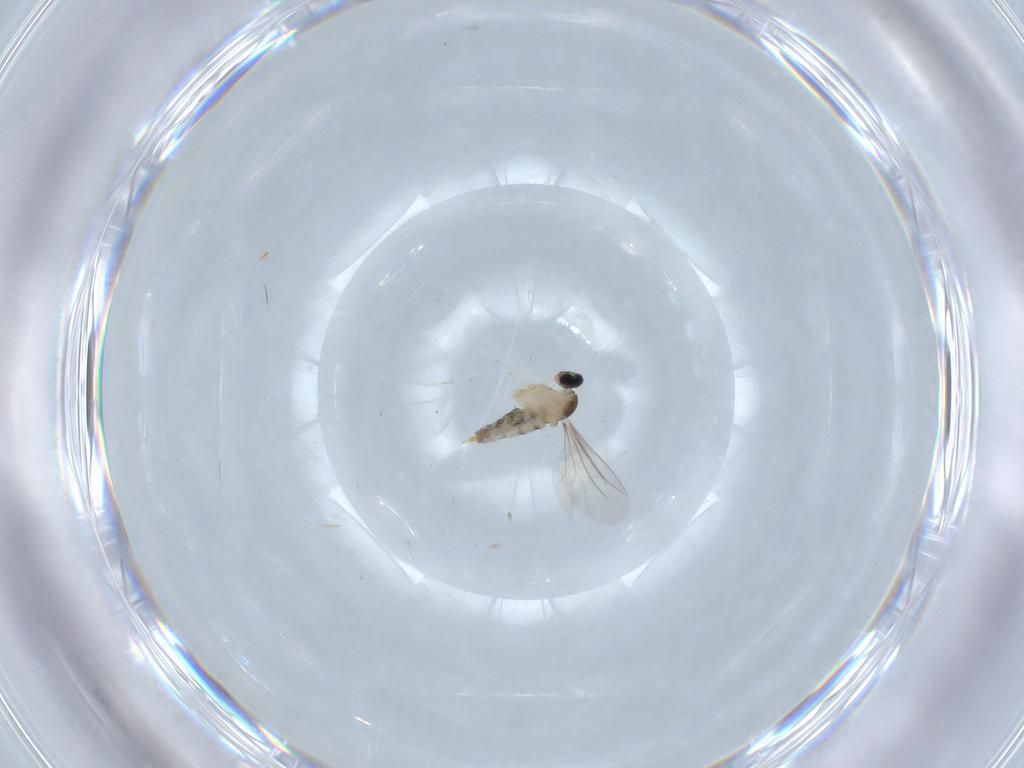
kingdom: Animalia
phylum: Arthropoda
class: Insecta
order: Diptera
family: Cecidomyiidae
